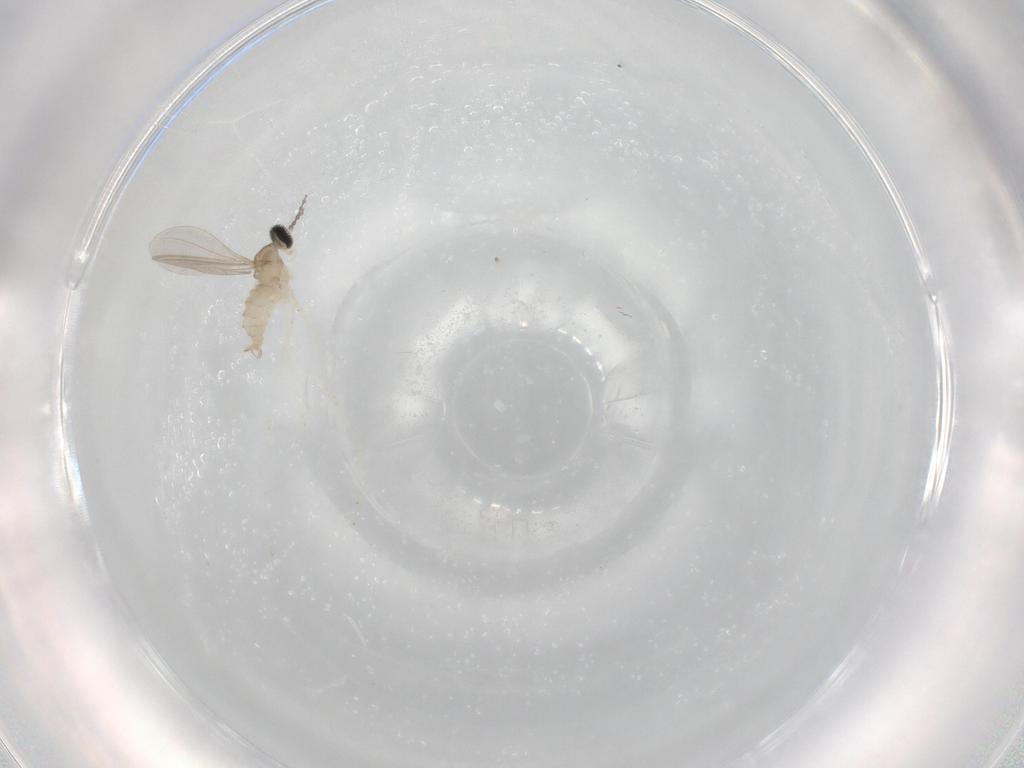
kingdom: Animalia
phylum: Arthropoda
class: Insecta
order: Diptera
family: Cecidomyiidae
